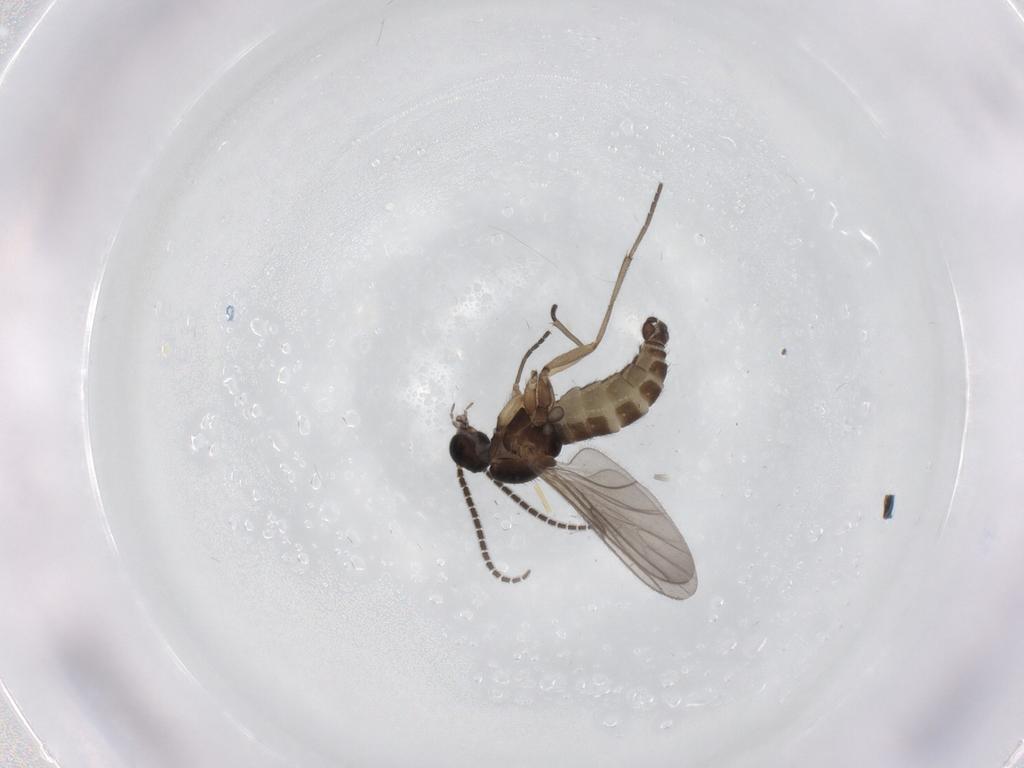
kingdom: Animalia
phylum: Arthropoda
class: Insecta
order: Diptera
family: Sciaridae
